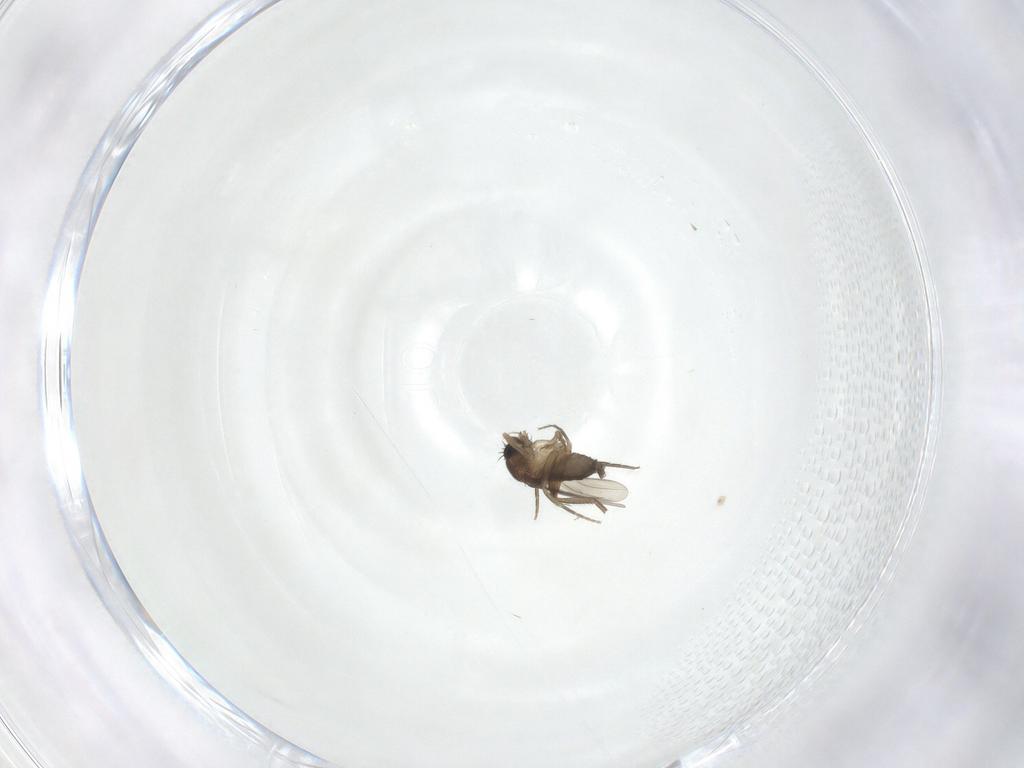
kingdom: Animalia
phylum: Arthropoda
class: Insecta
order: Diptera
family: Phoridae
